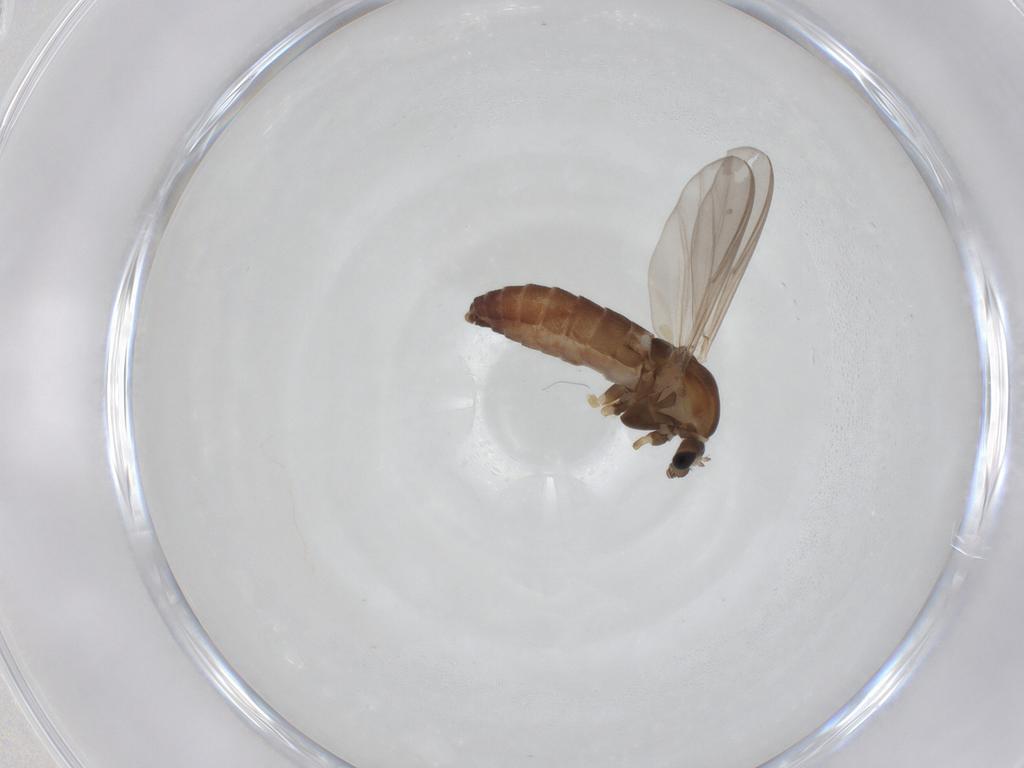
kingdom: Animalia
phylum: Arthropoda
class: Insecta
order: Diptera
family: Chironomidae
